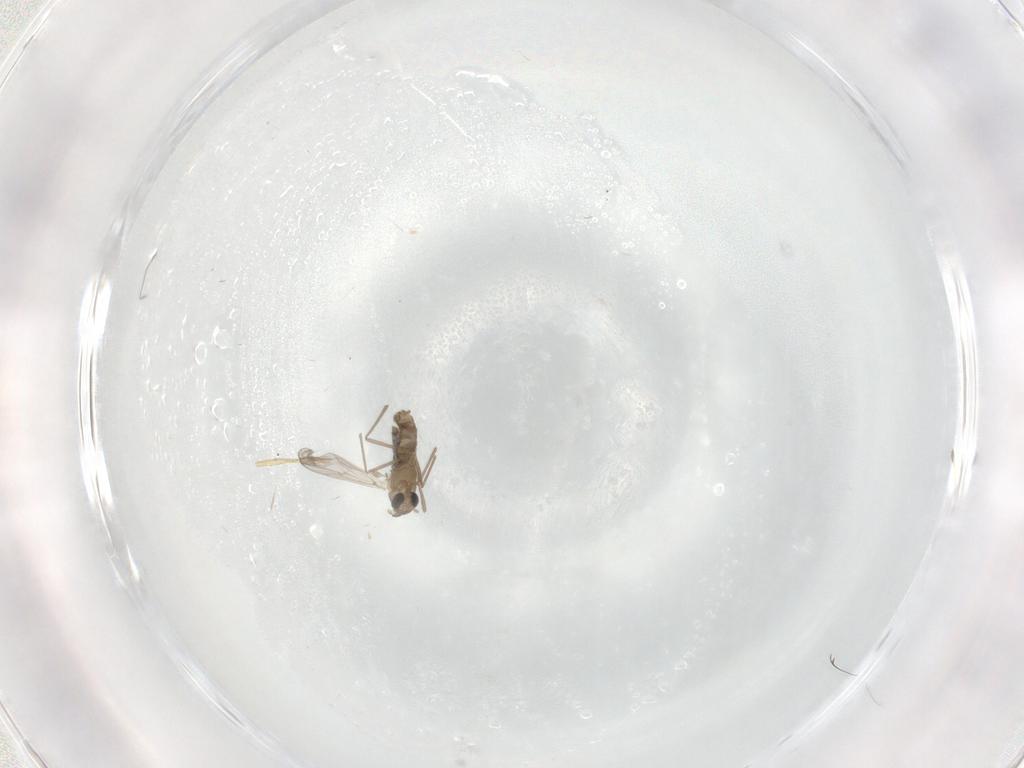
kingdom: Animalia
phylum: Arthropoda
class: Insecta
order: Diptera
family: Chironomidae
